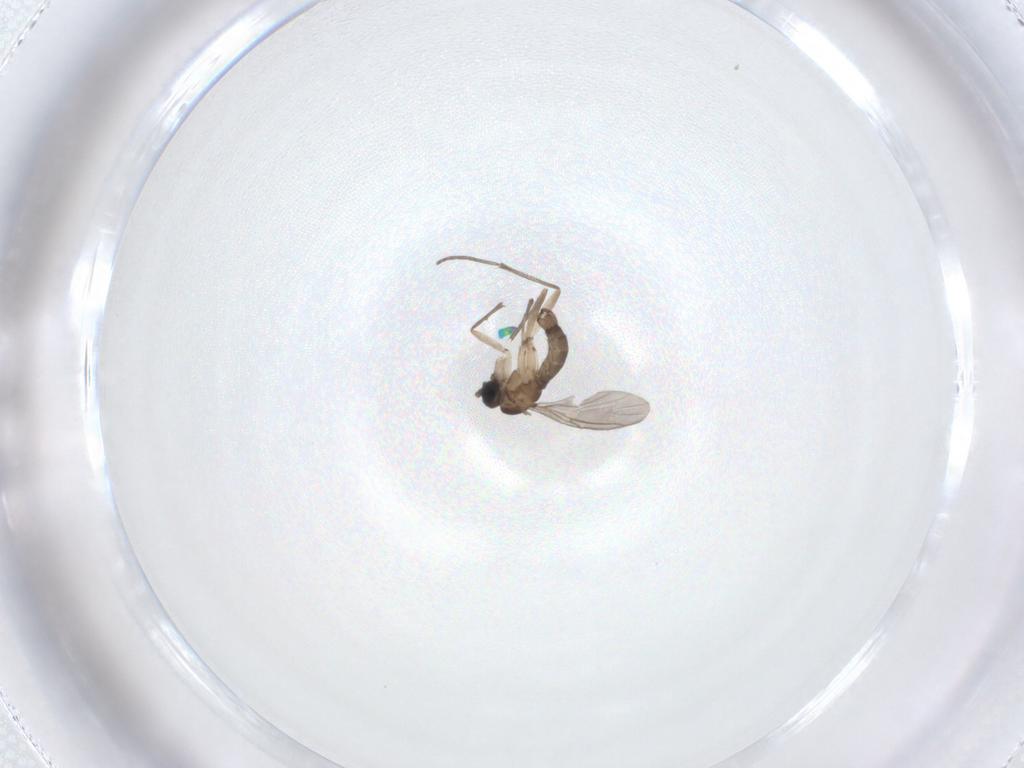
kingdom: Animalia
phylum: Arthropoda
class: Insecta
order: Diptera
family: Sciaridae
